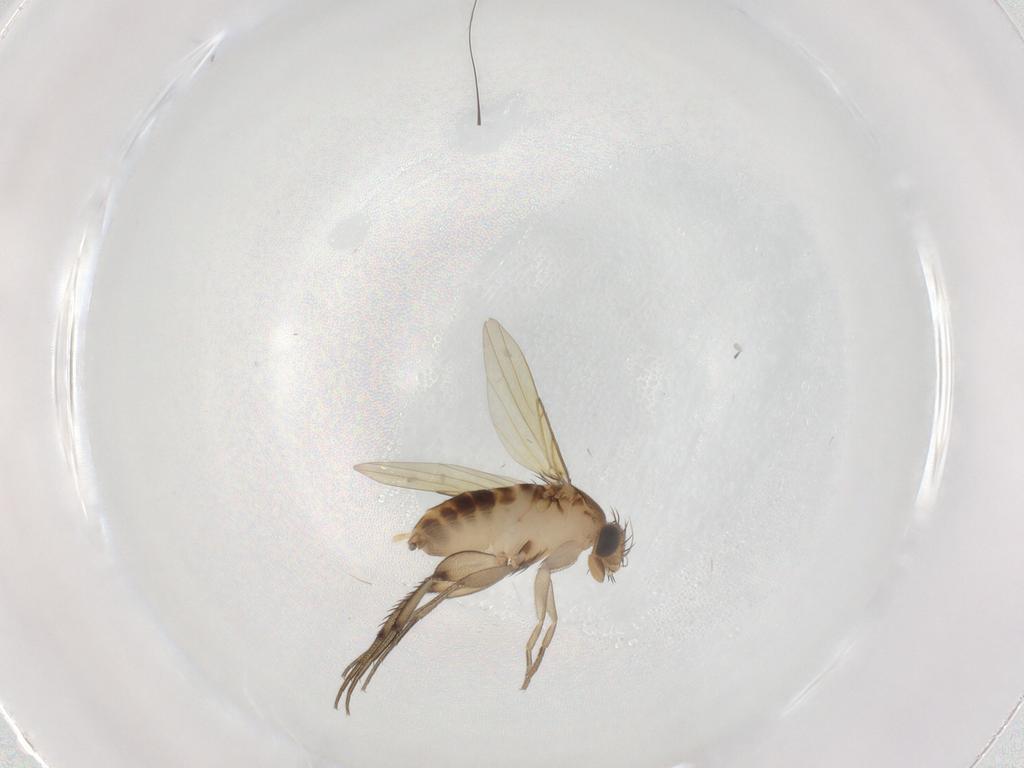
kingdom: Animalia
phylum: Arthropoda
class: Insecta
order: Diptera
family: Phoridae
